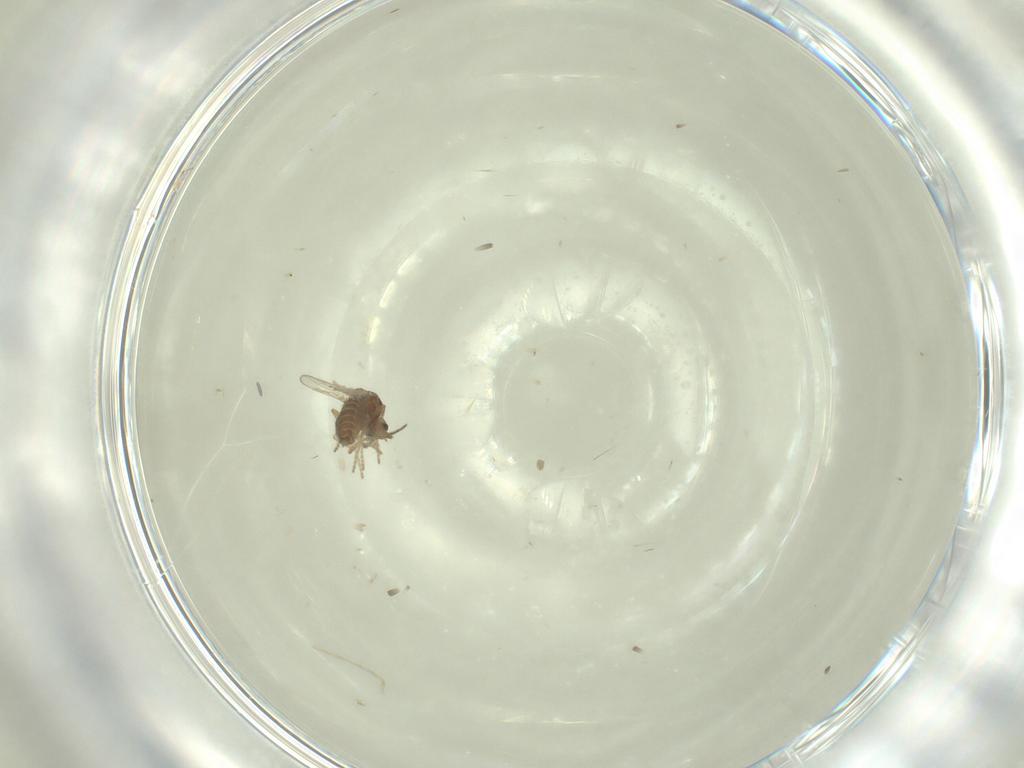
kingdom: Animalia
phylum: Arthropoda
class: Insecta
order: Diptera
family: Ceratopogonidae
